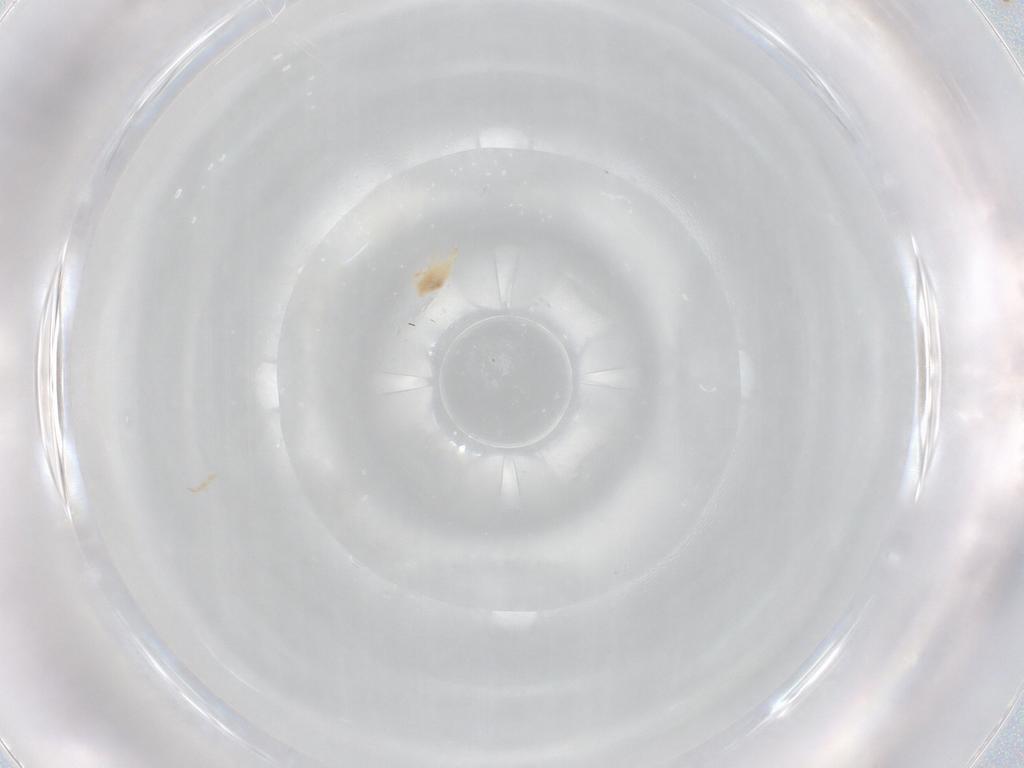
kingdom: Animalia
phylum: Arthropoda
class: Arachnida
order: Trombidiformes
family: Bdellidae
